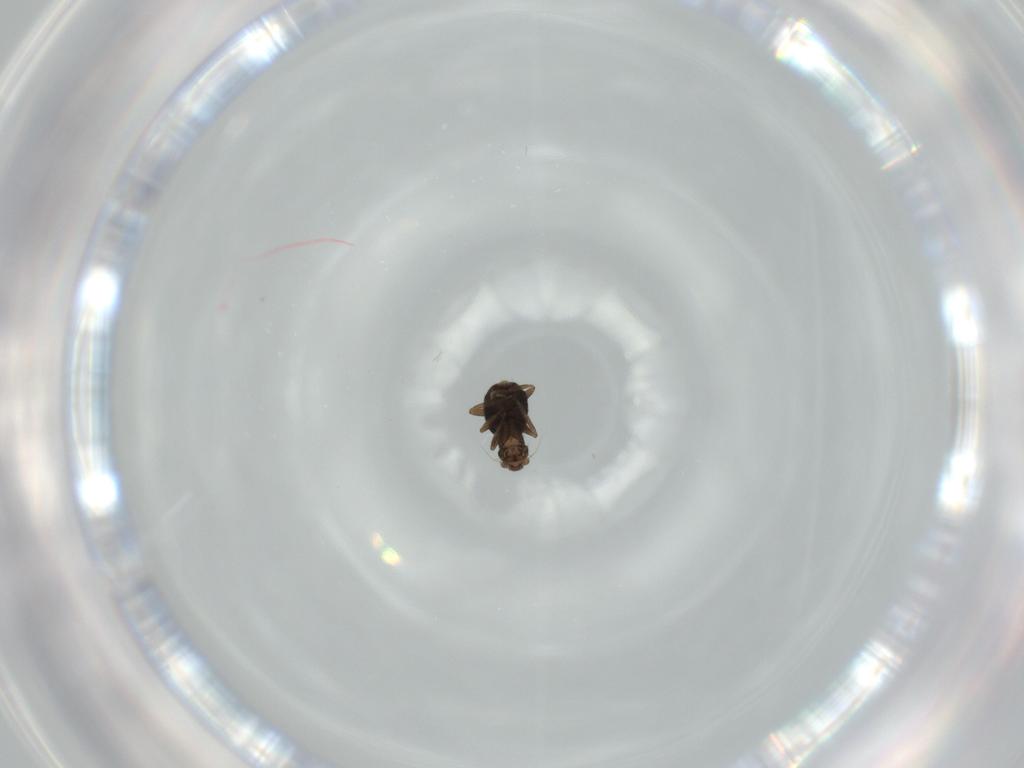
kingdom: Animalia
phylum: Arthropoda
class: Insecta
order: Diptera
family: Phoridae
